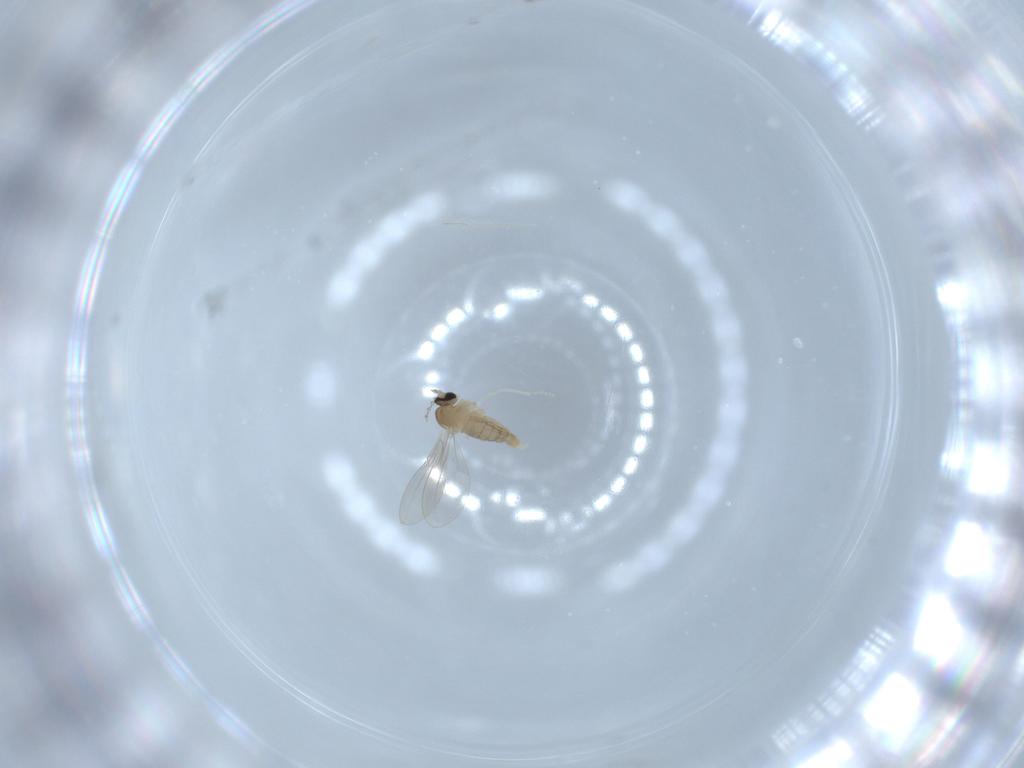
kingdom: Animalia
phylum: Arthropoda
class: Insecta
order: Diptera
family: Cecidomyiidae
